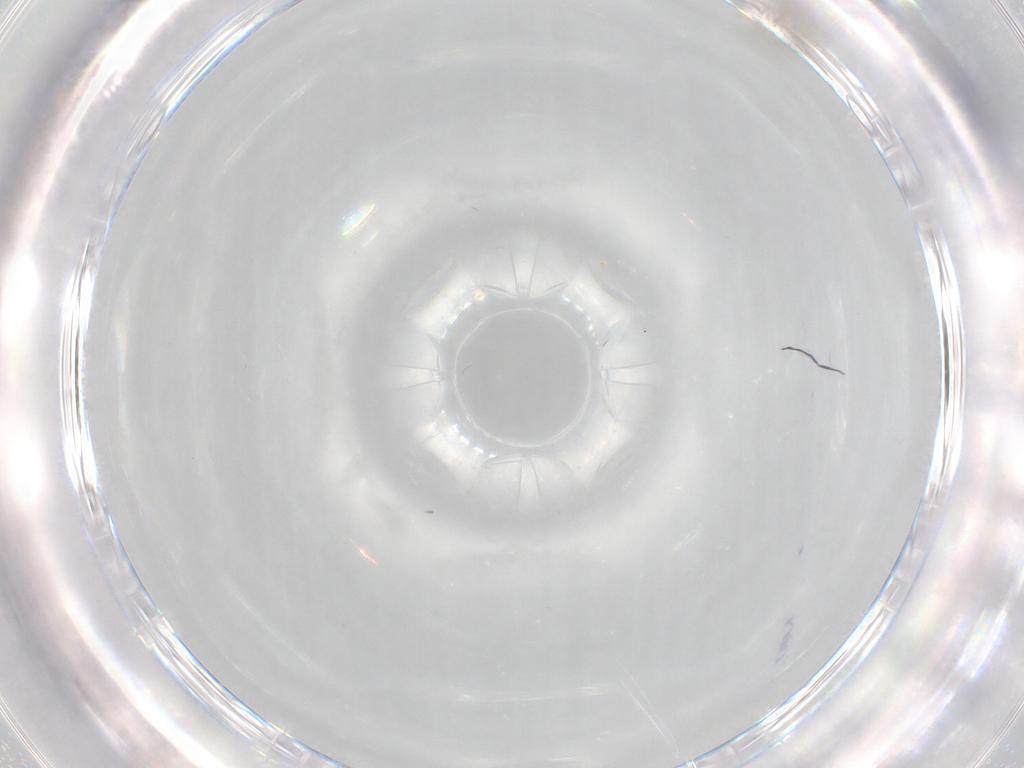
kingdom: Animalia
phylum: Arthropoda
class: Insecta
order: Diptera
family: Cecidomyiidae
